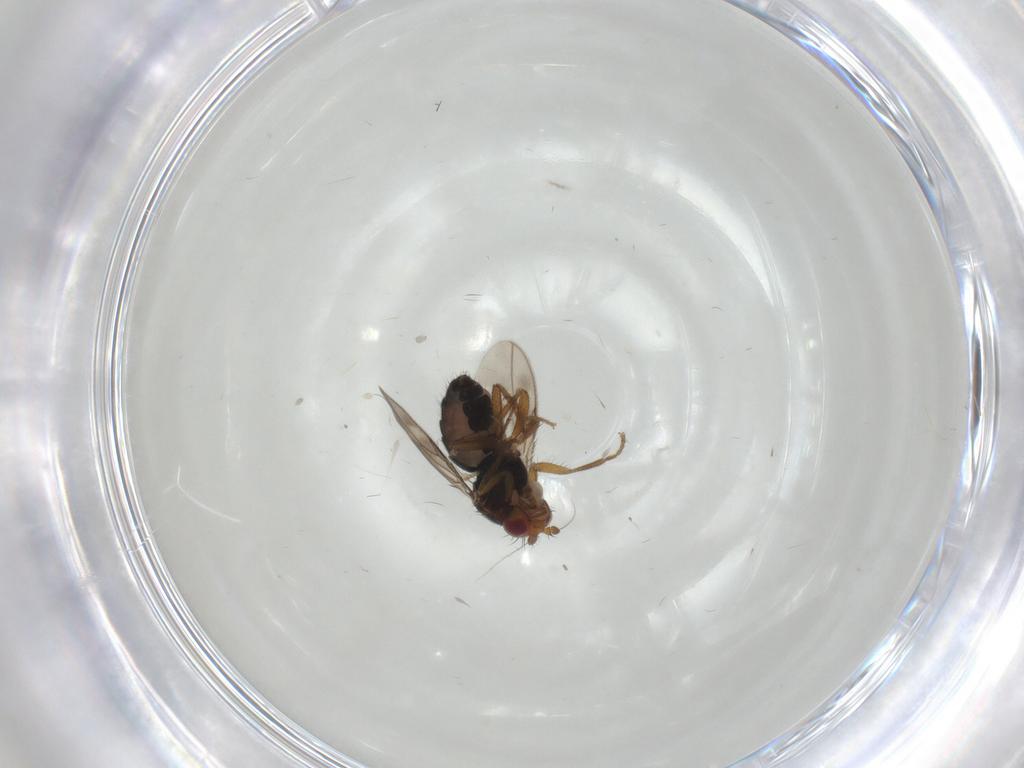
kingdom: Animalia
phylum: Arthropoda
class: Insecta
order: Diptera
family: Sphaeroceridae
